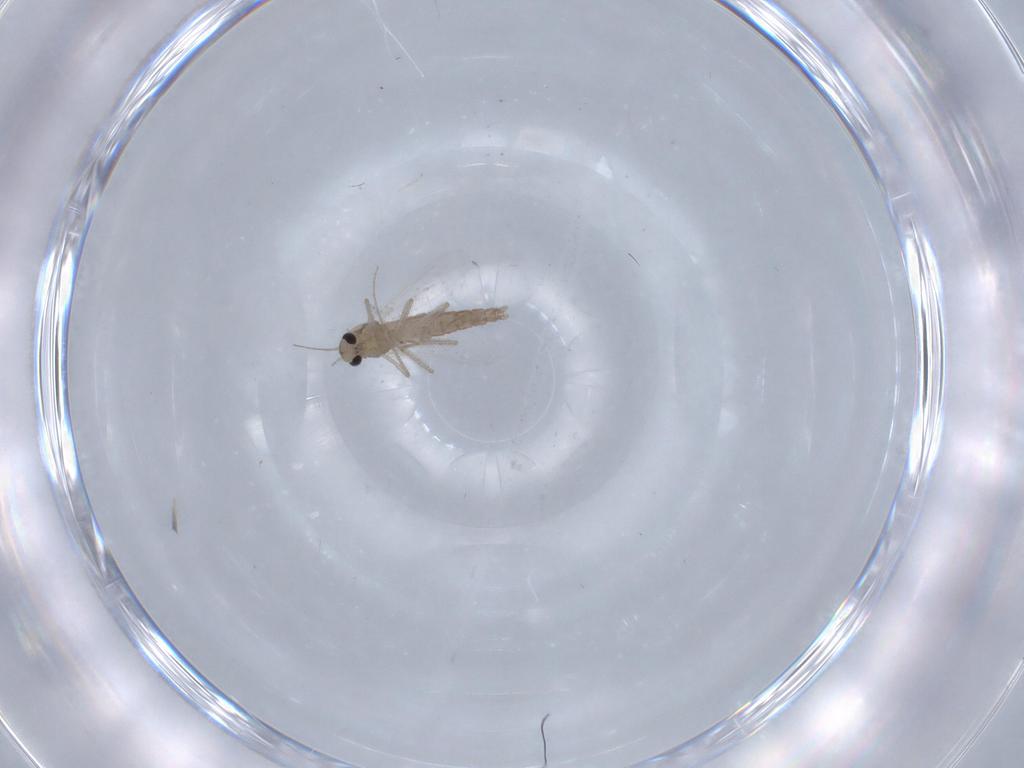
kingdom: Animalia
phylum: Arthropoda
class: Insecta
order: Diptera
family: Chironomidae
